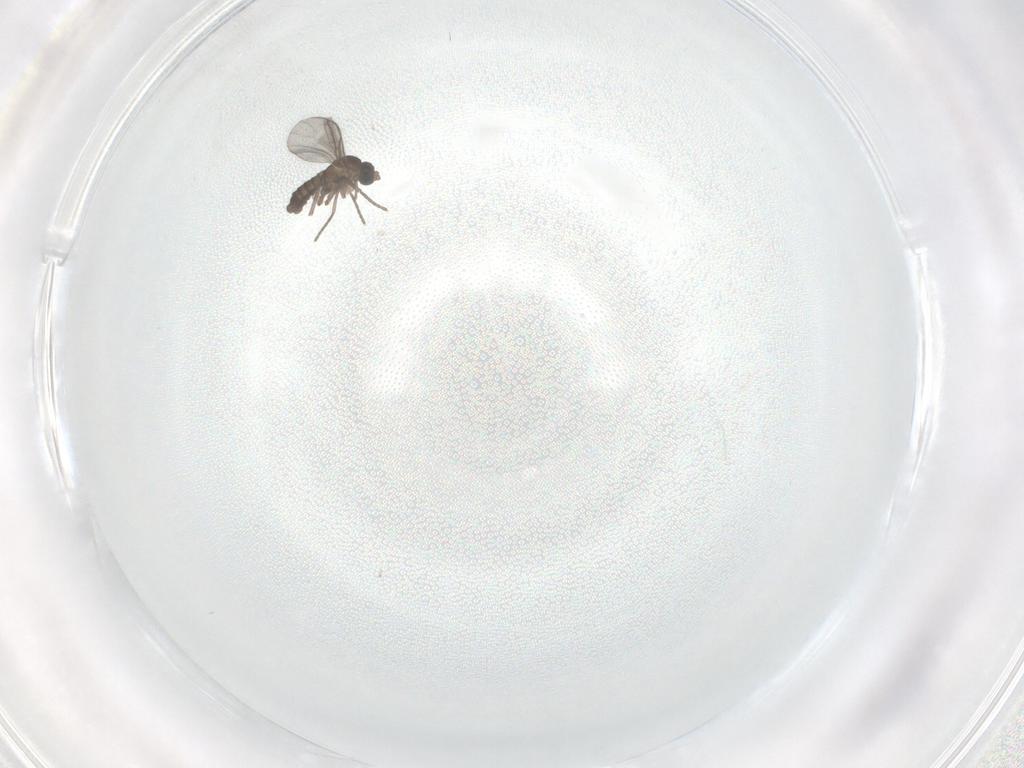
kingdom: Animalia
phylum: Arthropoda
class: Insecta
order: Diptera
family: Sciaridae
